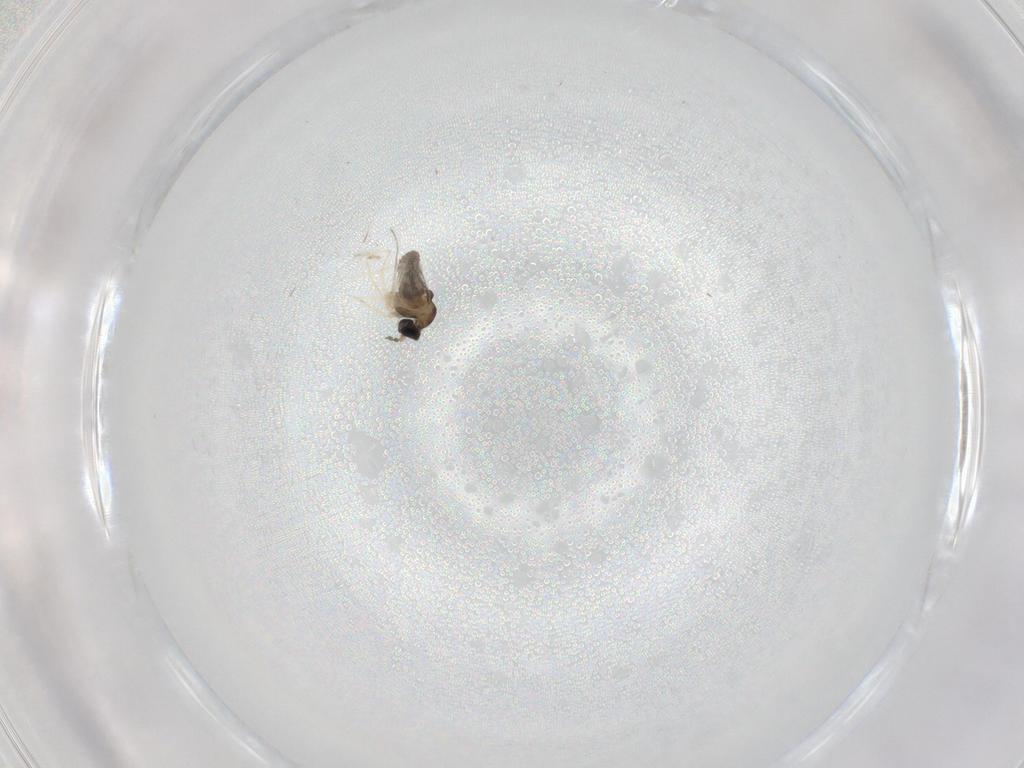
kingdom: Animalia
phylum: Arthropoda
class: Insecta
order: Diptera
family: Cecidomyiidae
